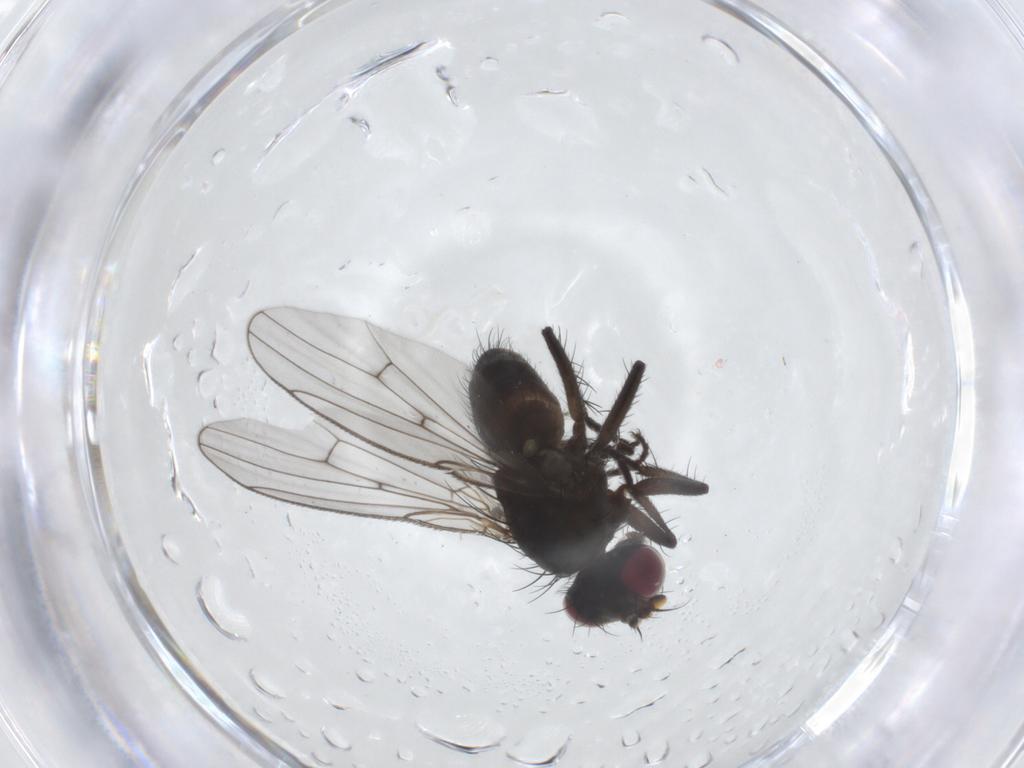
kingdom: Animalia
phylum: Arthropoda
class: Insecta
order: Diptera
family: Muscidae
